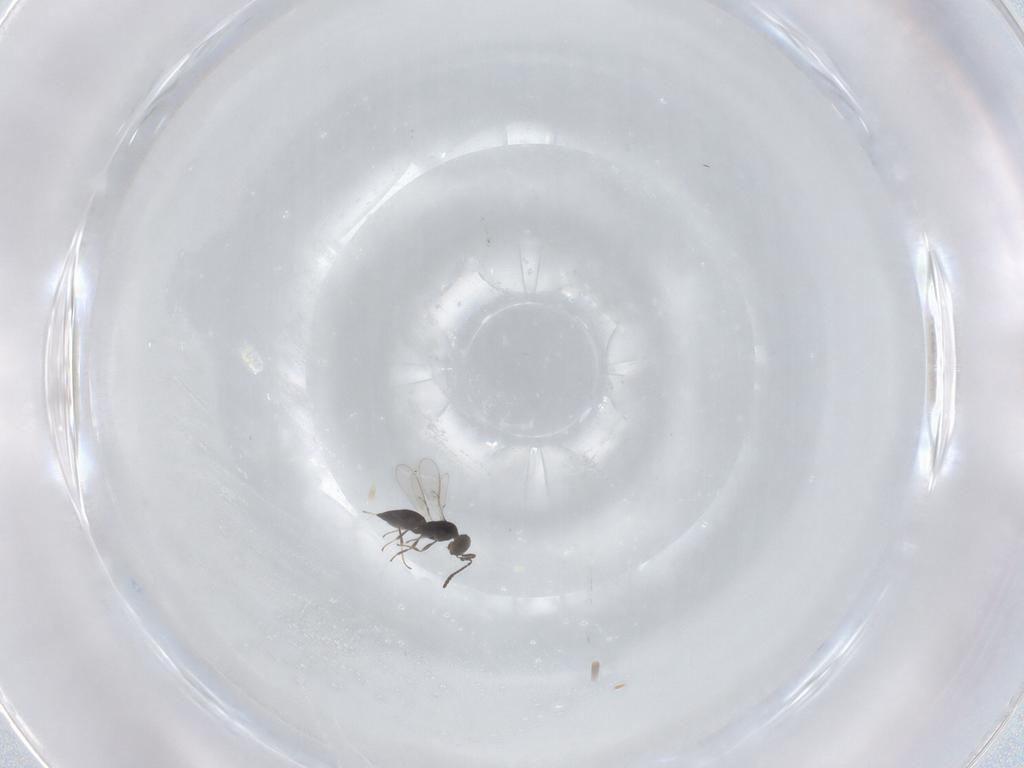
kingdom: Animalia
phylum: Arthropoda
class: Insecta
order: Hymenoptera
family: Scelionidae
